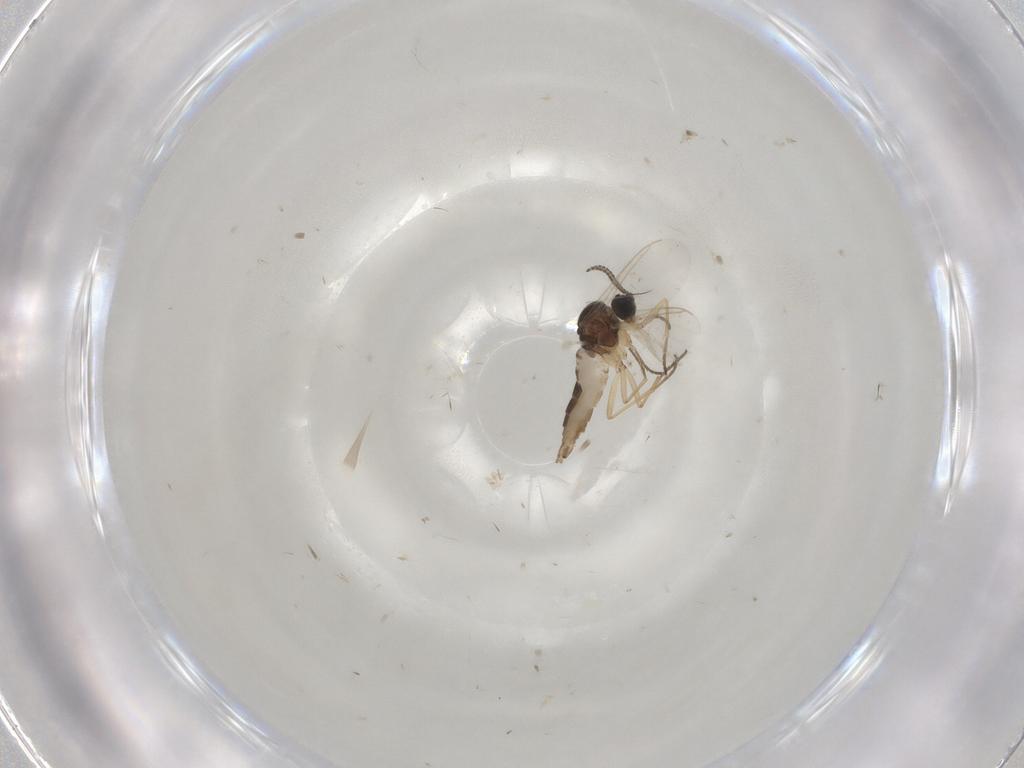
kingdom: Animalia
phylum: Arthropoda
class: Insecta
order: Diptera
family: Sciaridae
